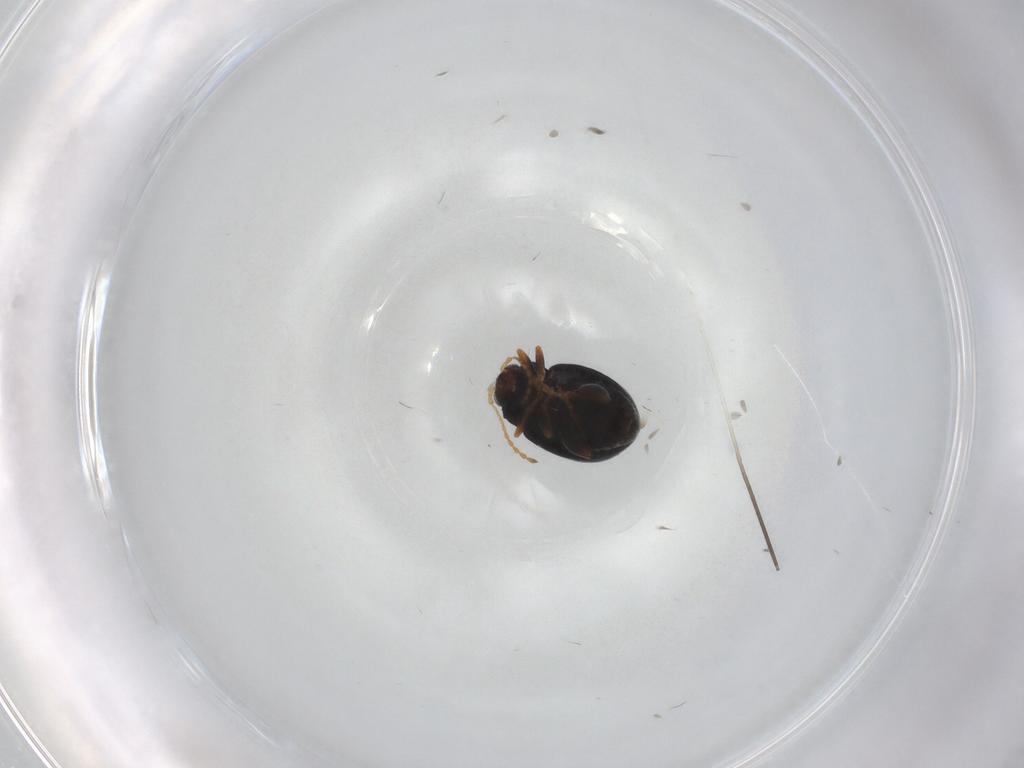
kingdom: Animalia
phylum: Arthropoda
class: Insecta
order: Coleoptera
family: Chrysomelidae
